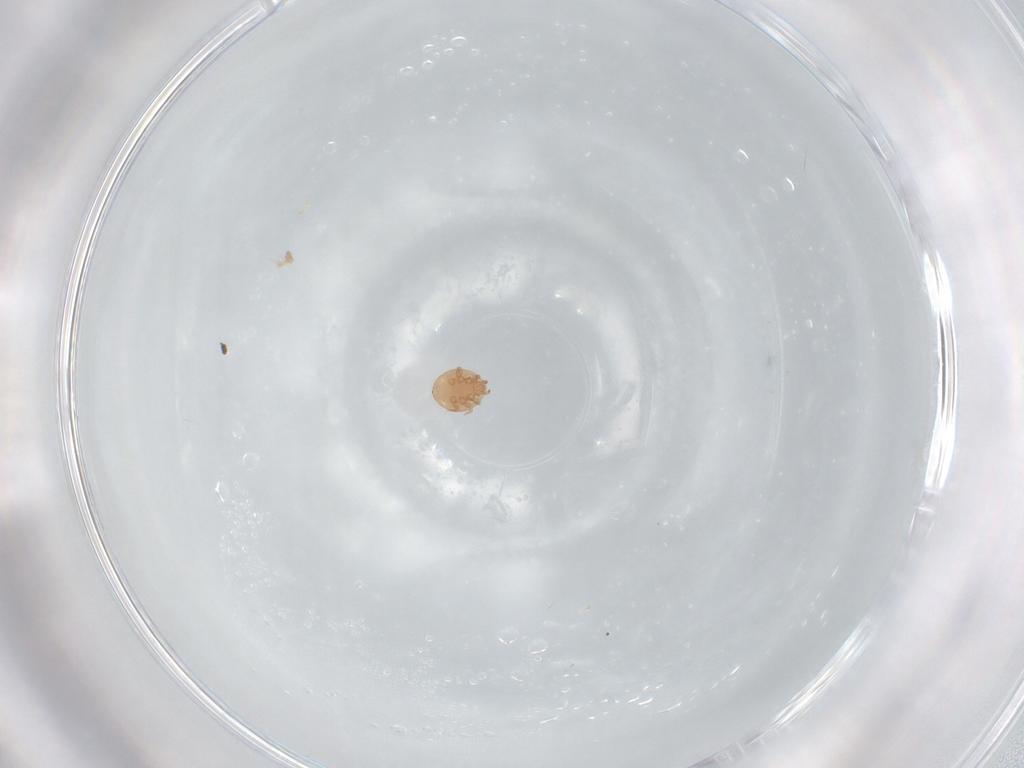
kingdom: Animalia
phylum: Arthropoda
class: Arachnida
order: Mesostigmata
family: Trematuridae
